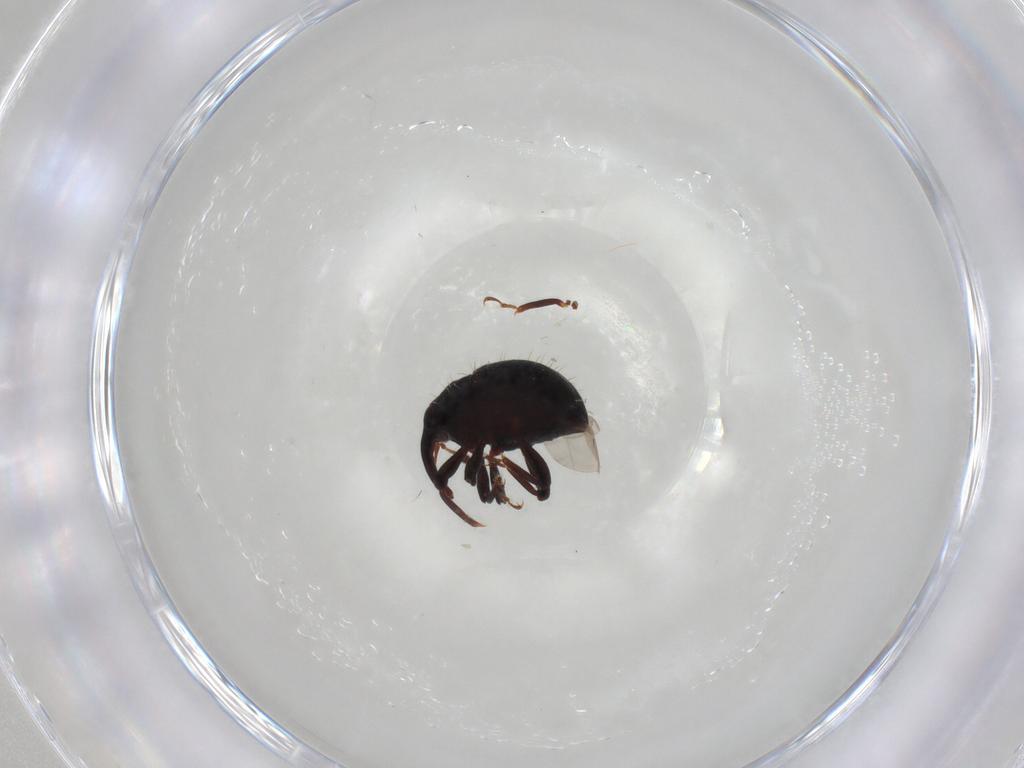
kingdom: Animalia
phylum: Arthropoda
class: Insecta
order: Coleoptera
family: Curculionidae
